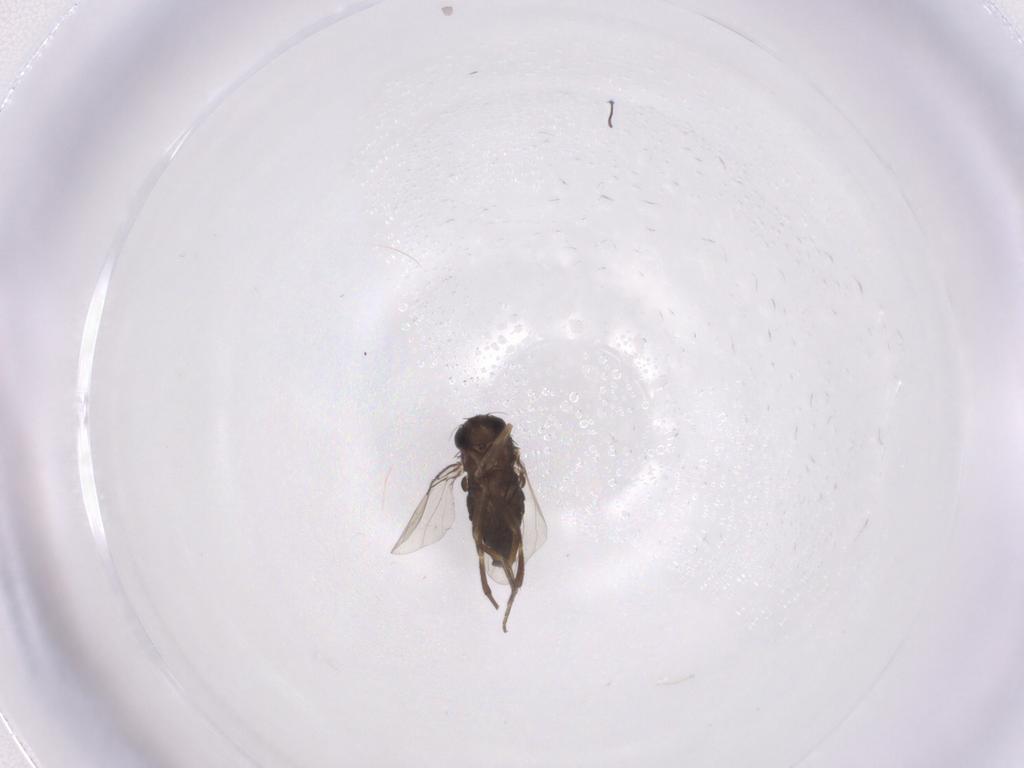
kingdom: Animalia
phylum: Arthropoda
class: Insecta
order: Diptera
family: Phoridae
